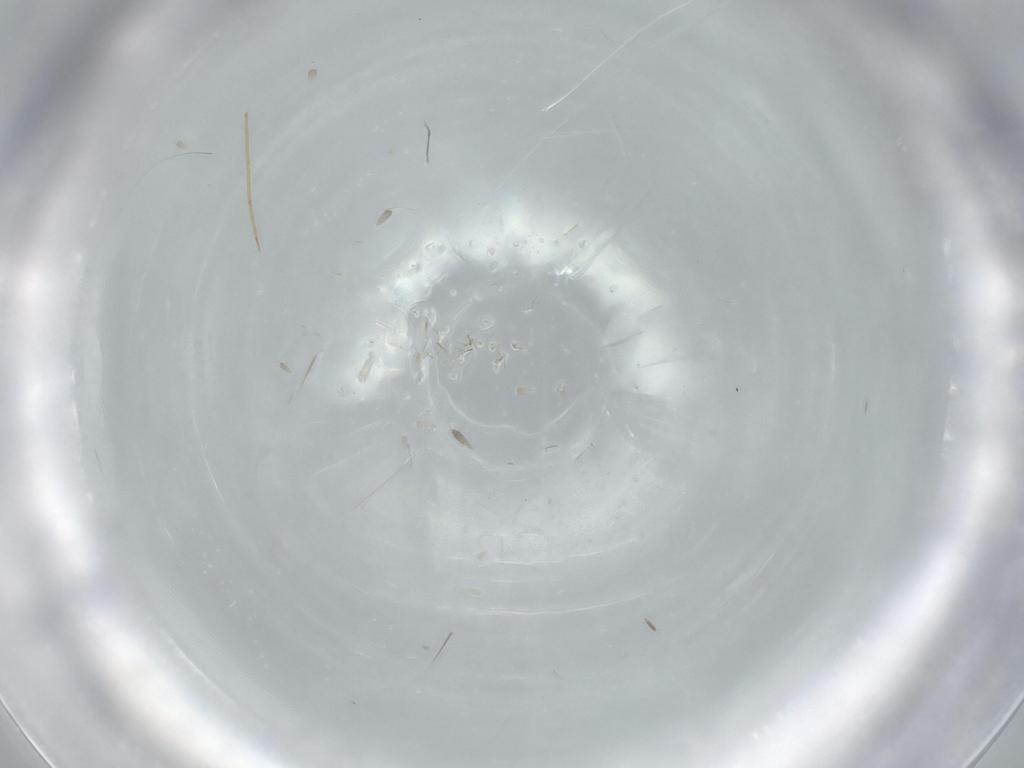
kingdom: Animalia
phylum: Arthropoda
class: Insecta
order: Coleoptera
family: Ripiphoridae
